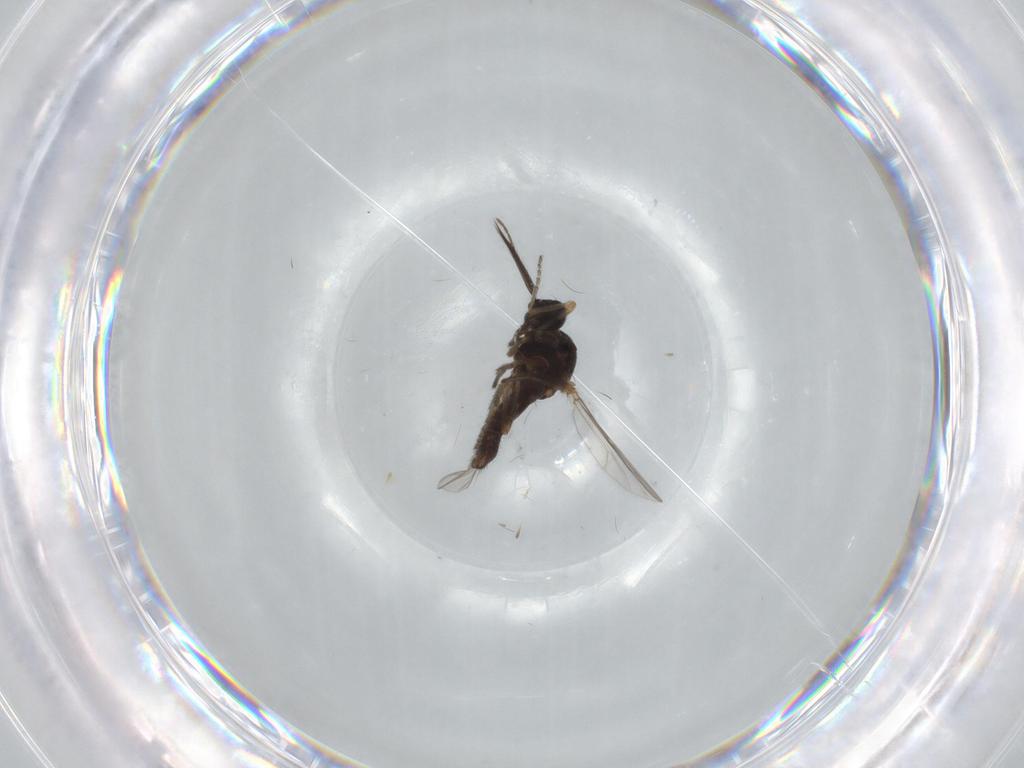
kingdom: Animalia
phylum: Arthropoda
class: Insecta
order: Diptera
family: Ceratopogonidae
